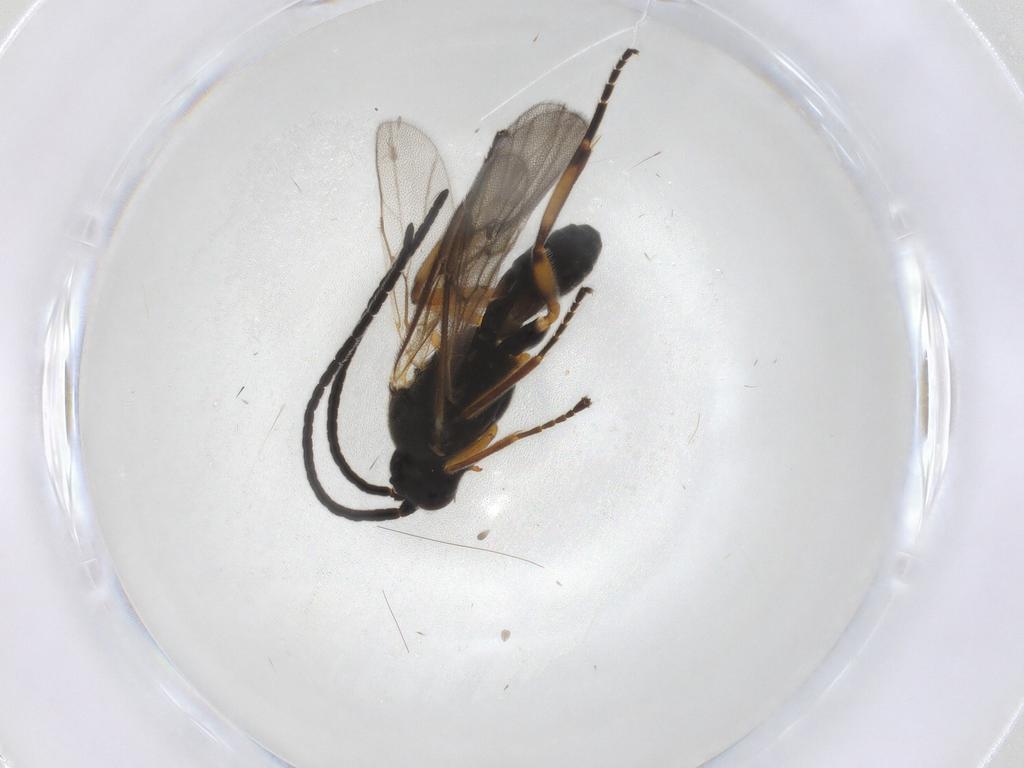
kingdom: Animalia
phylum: Arthropoda
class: Insecta
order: Hymenoptera
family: Braconidae
